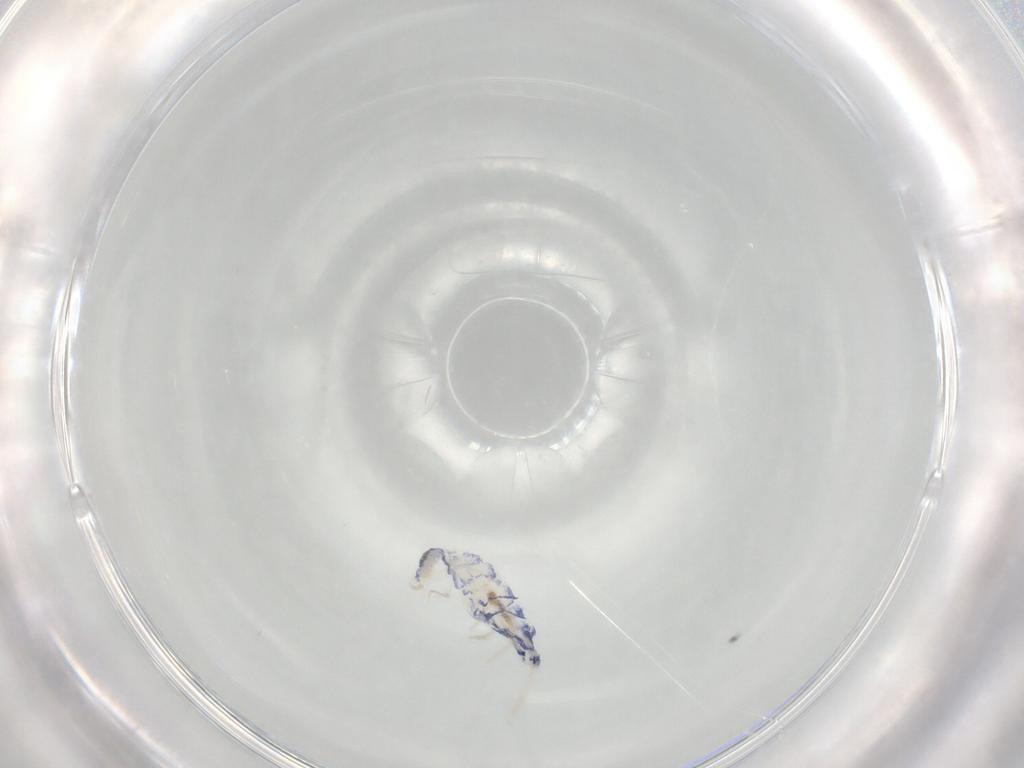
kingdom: Animalia
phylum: Arthropoda
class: Collembola
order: Entomobryomorpha
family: Entomobryidae
